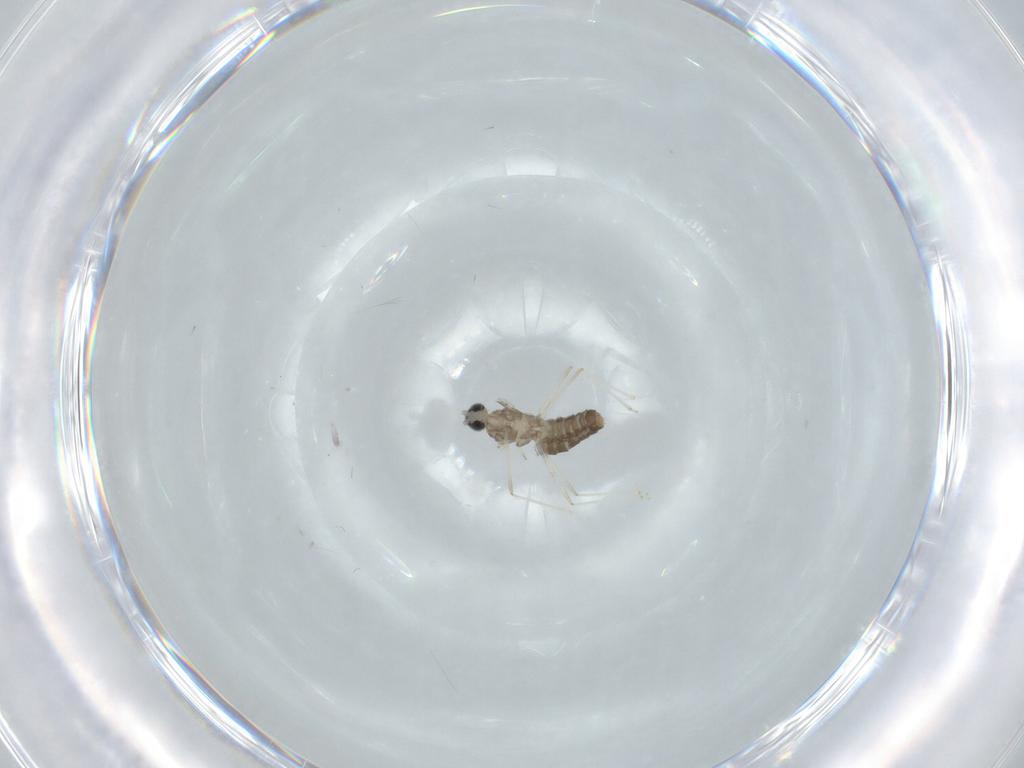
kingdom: Animalia
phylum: Arthropoda
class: Insecta
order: Diptera
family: Cecidomyiidae
